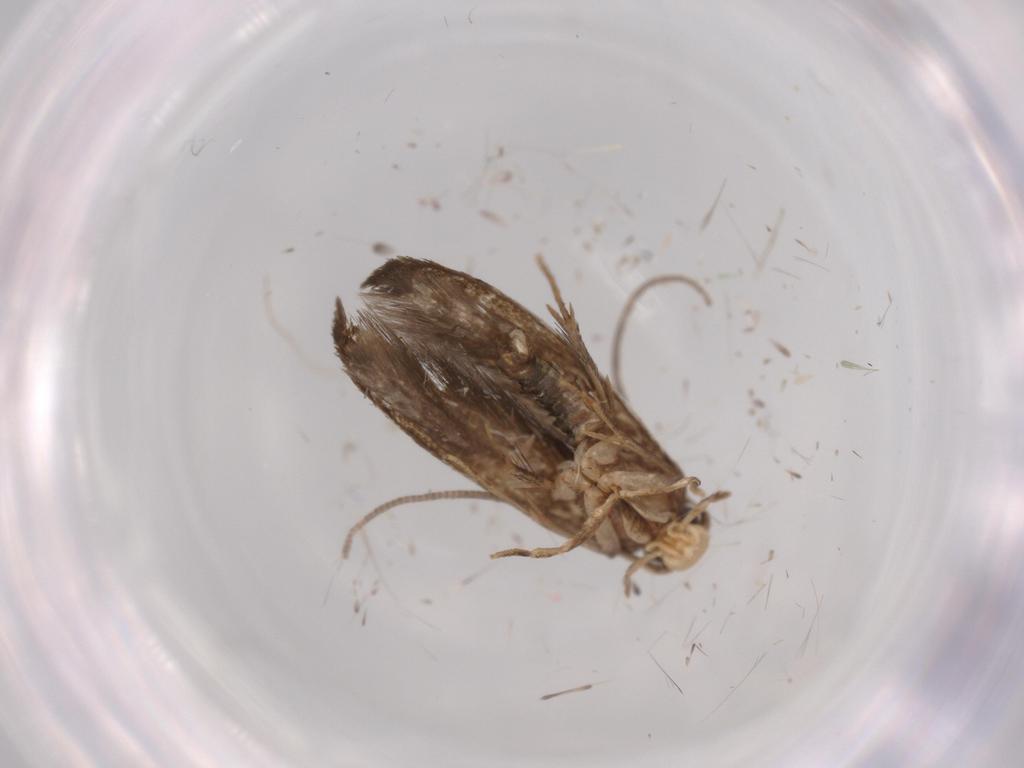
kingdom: Animalia
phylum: Arthropoda
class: Insecta
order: Lepidoptera
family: Tineidae
